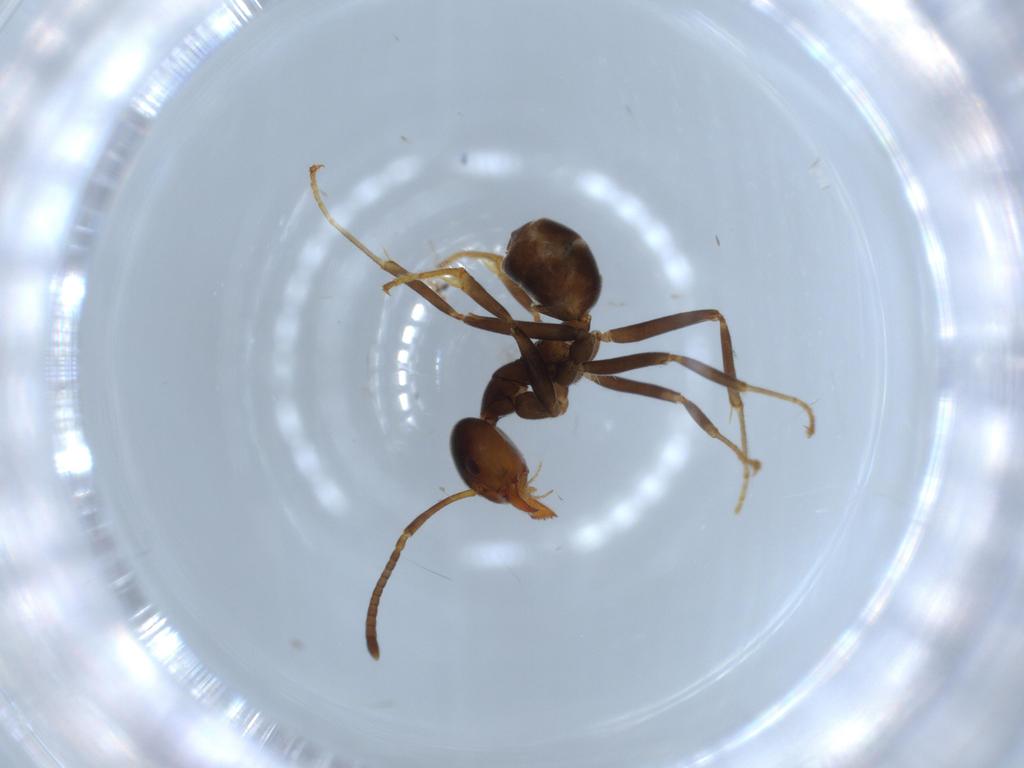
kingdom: Animalia
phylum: Arthropoda
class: Insecta
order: Hymenoptera
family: Formicidae
